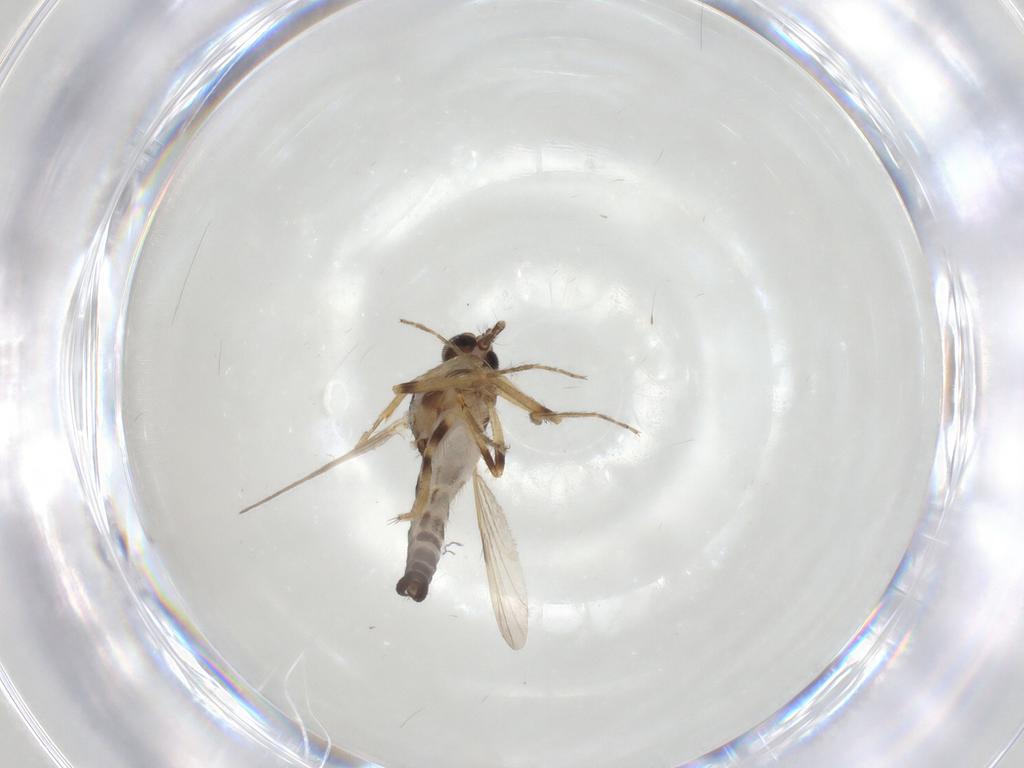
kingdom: Animalia
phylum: Arthropoda
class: Insecta
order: Diptera
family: Ceratopogonidae
